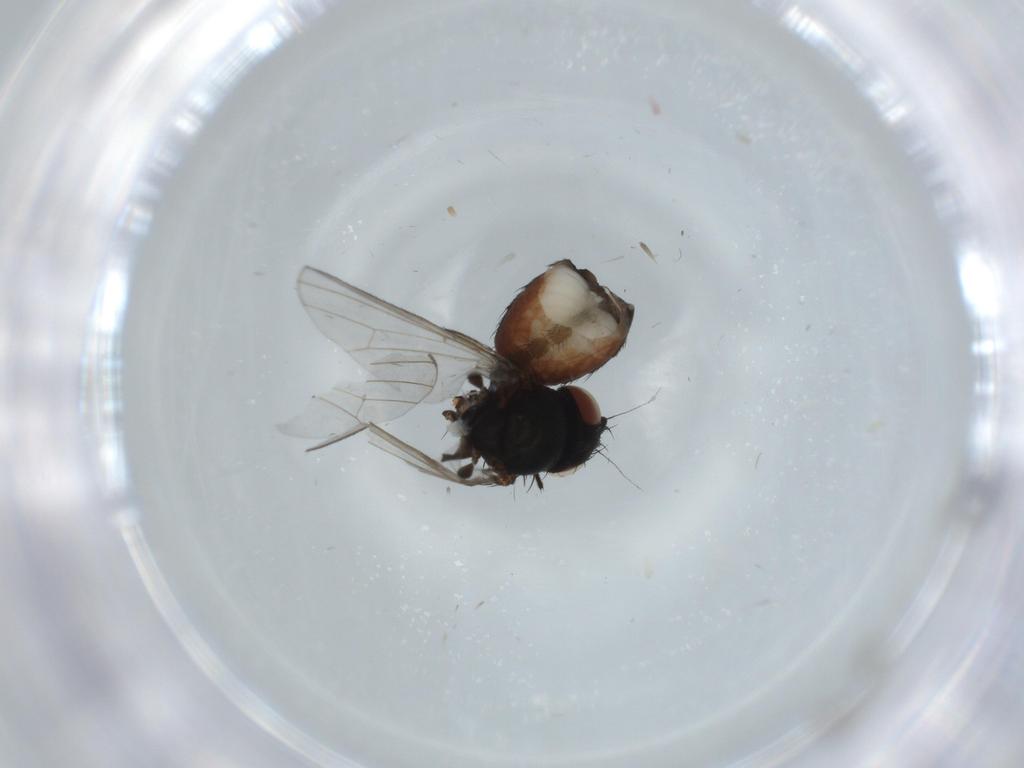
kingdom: Animalia
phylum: Arthropoda
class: Insecta
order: Diptera
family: Milichiidae
